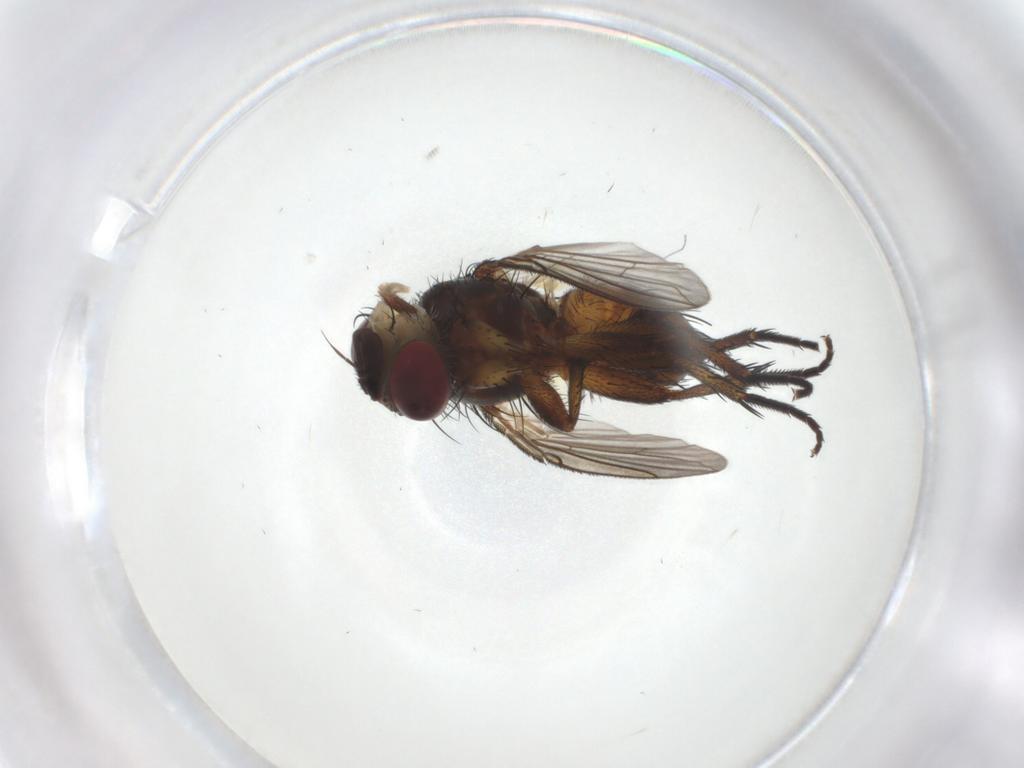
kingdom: Animalia
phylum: Arthropoda
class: Insecta
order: Diptera
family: Tachinidae
